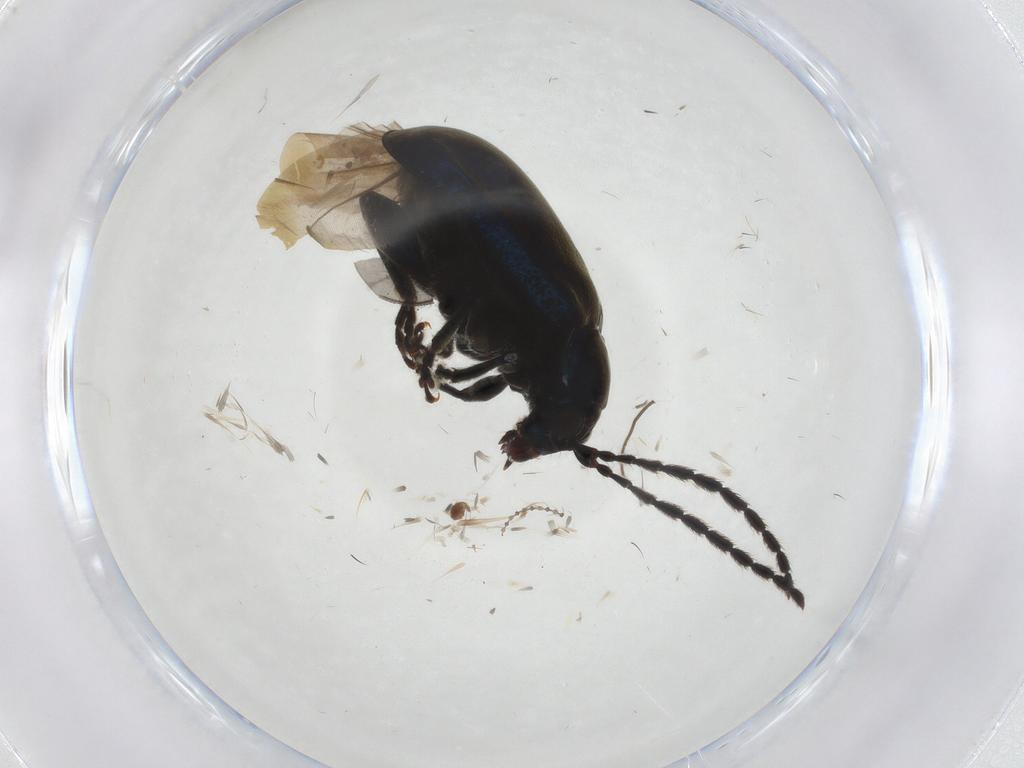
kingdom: Animalia
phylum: Arthropoda
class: Insecta
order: Coleoptera
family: Chrysomelidae
